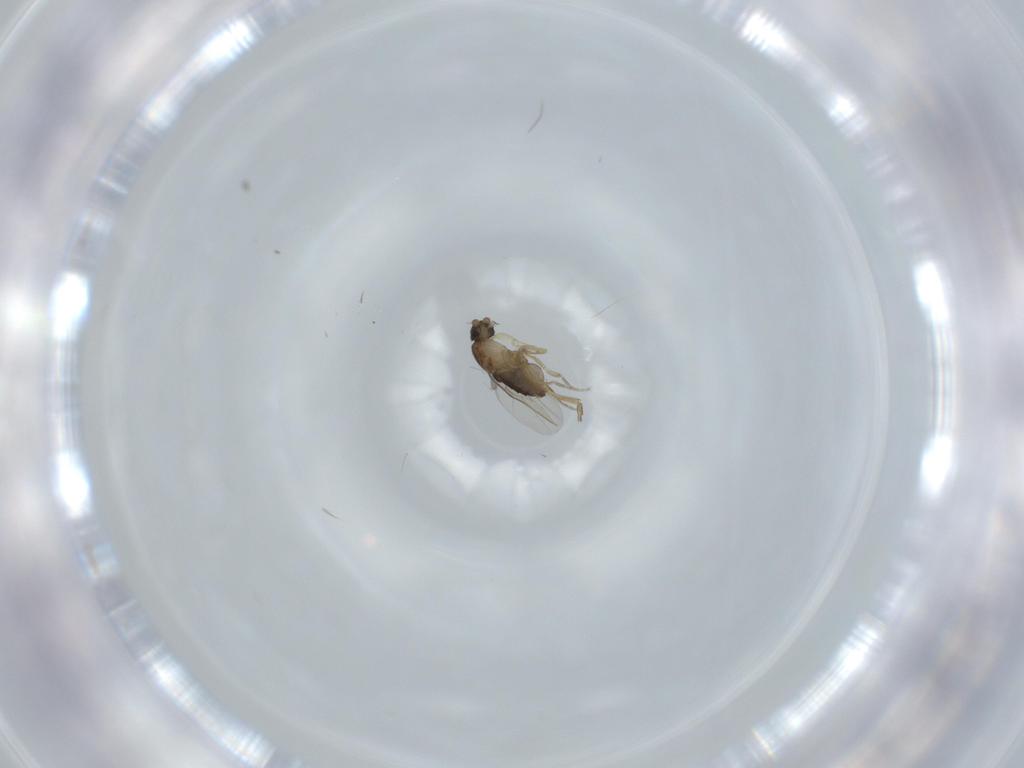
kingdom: Animalia
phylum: Arthropoda
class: Insecta
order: Diptera
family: Phoridae
